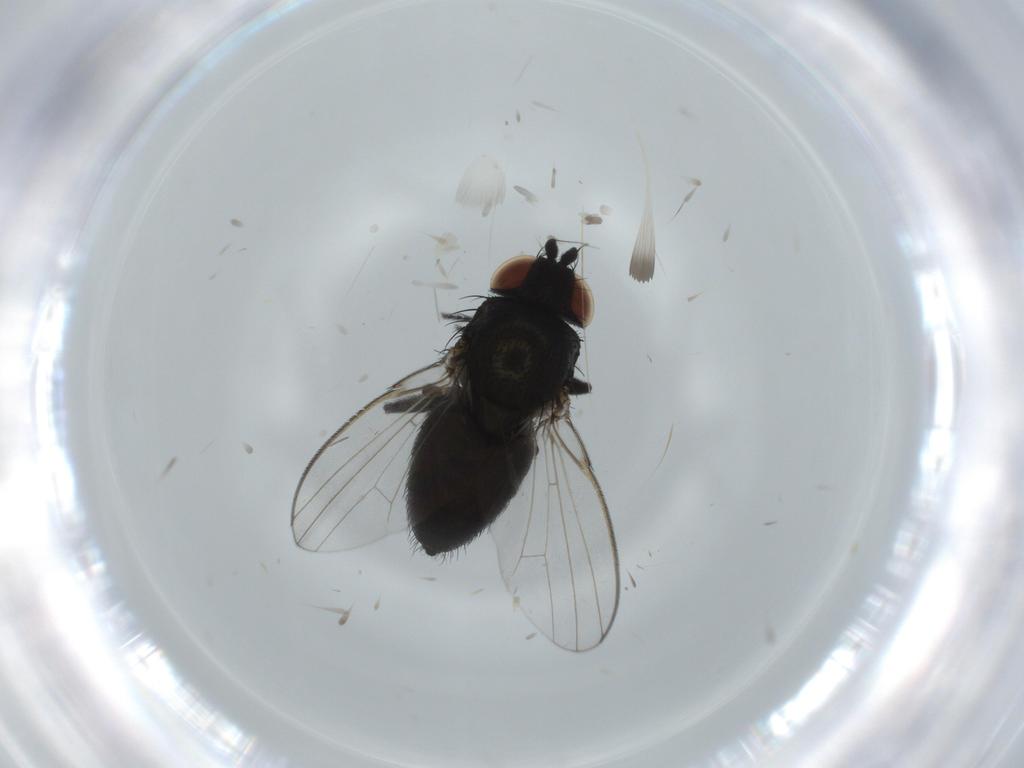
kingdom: Animalia
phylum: Arthropoda
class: Insecta
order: Diptera
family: Milichiidae
